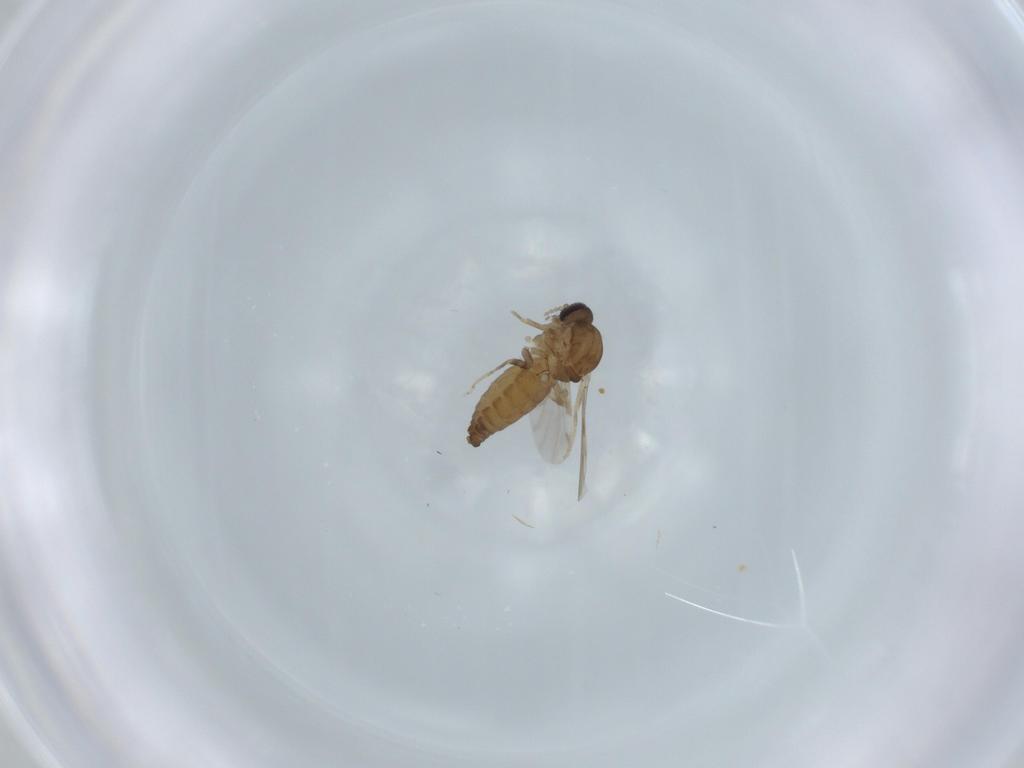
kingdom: Animalia
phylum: Arthropoda
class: Insecta
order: Diptera
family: Ceratopogonidae
